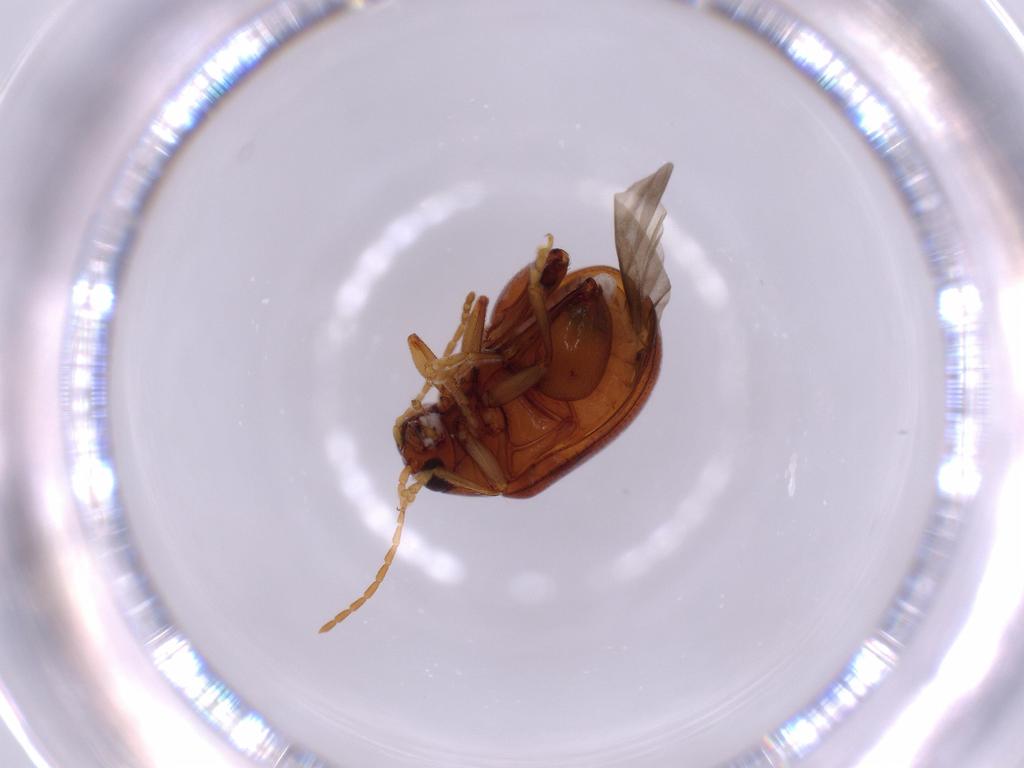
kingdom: Animalia
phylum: Arthropoda
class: Insecta
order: Coleoptera
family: Chrysomelidae
